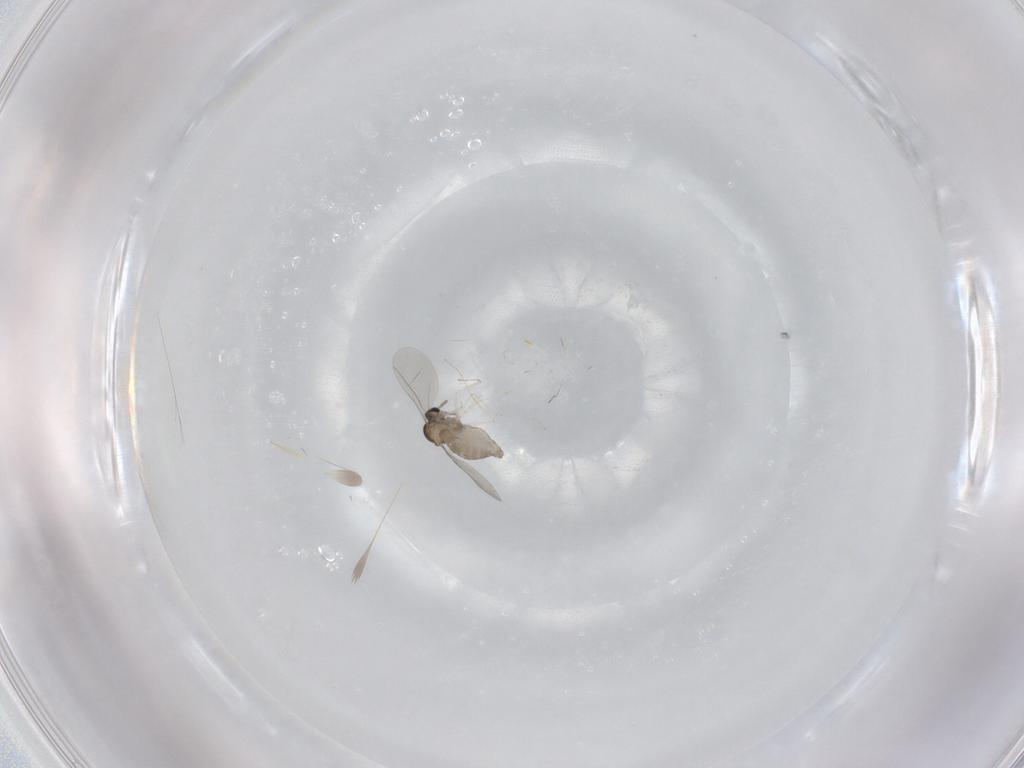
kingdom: Animalia
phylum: Arthropoda
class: Insecta
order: Diptera
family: Cecidomyiidae
